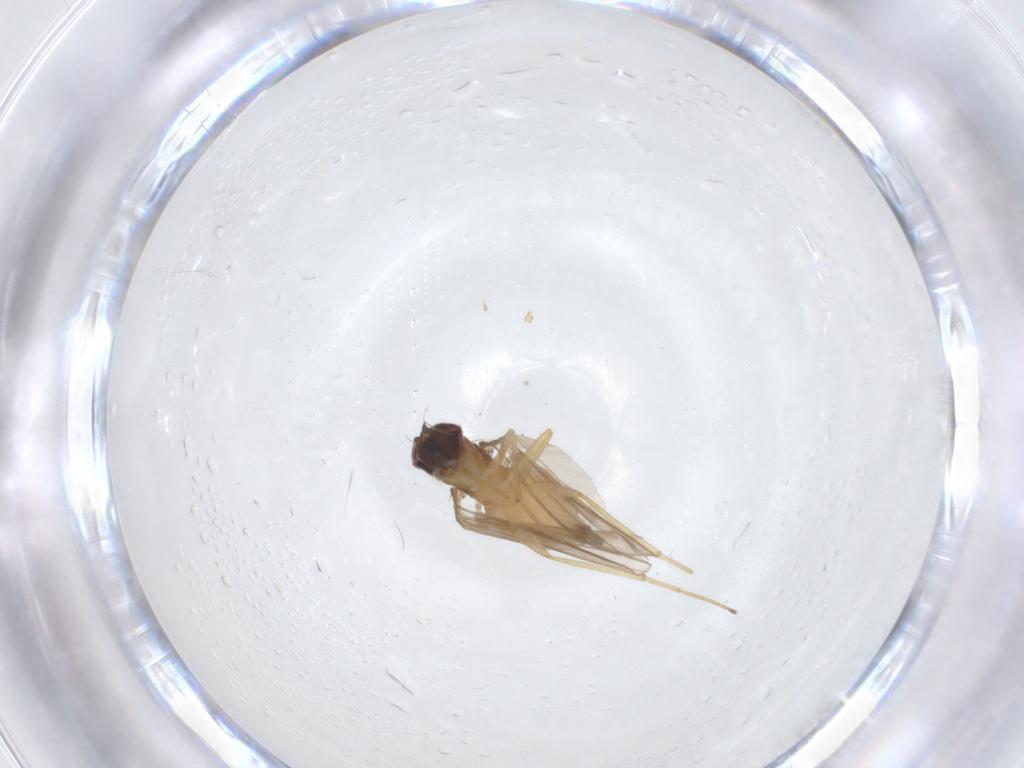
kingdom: Animalia
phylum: Arthropoda
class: Insecta
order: Diptera
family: Dolichopodidae
